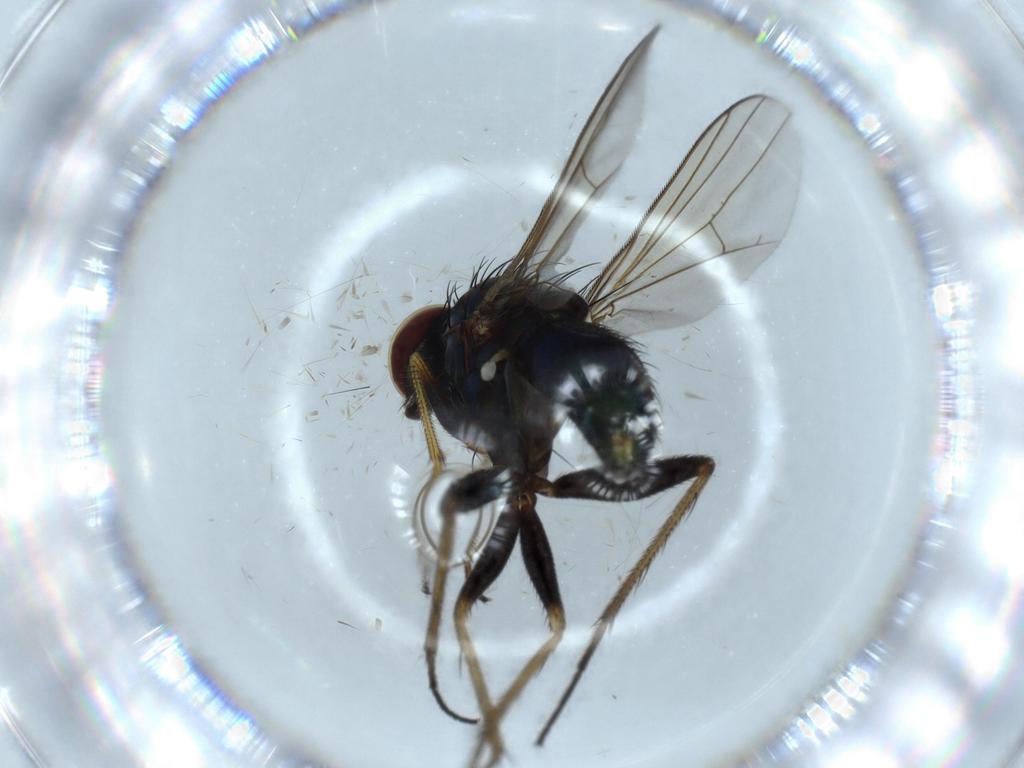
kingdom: Animalia
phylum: Arthropoda
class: Insecta
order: Diptera
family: Dolichopodidae
